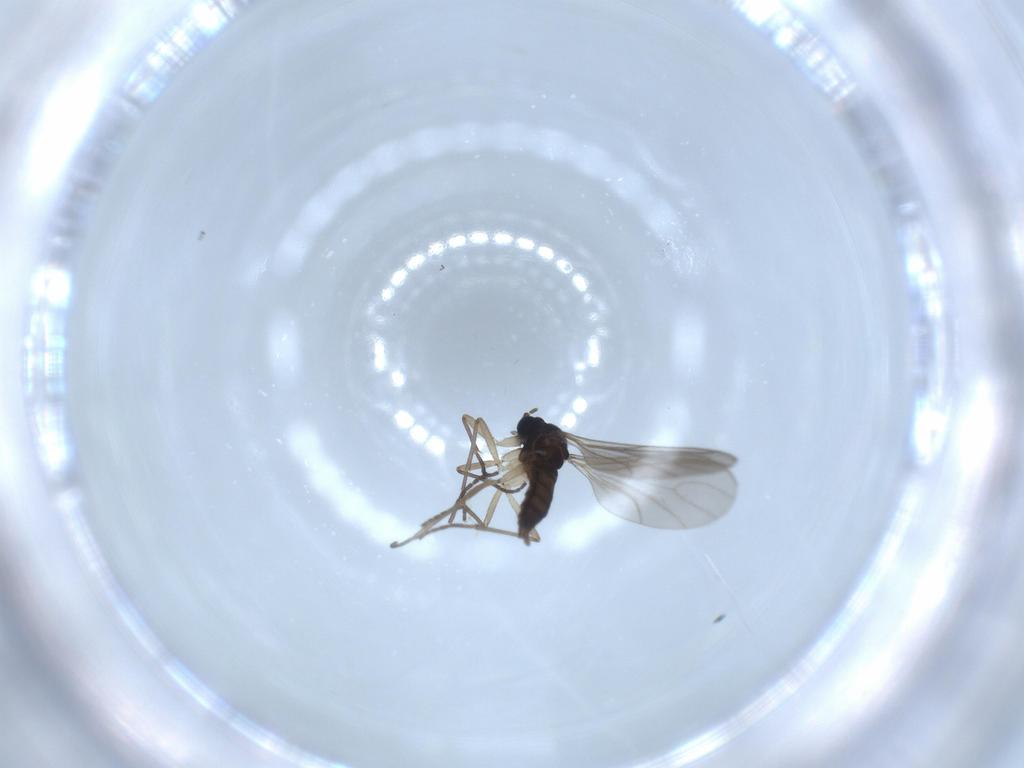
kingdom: Animalia
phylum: Arthropoda
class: Insecta
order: Diptera
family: Sciaridae
